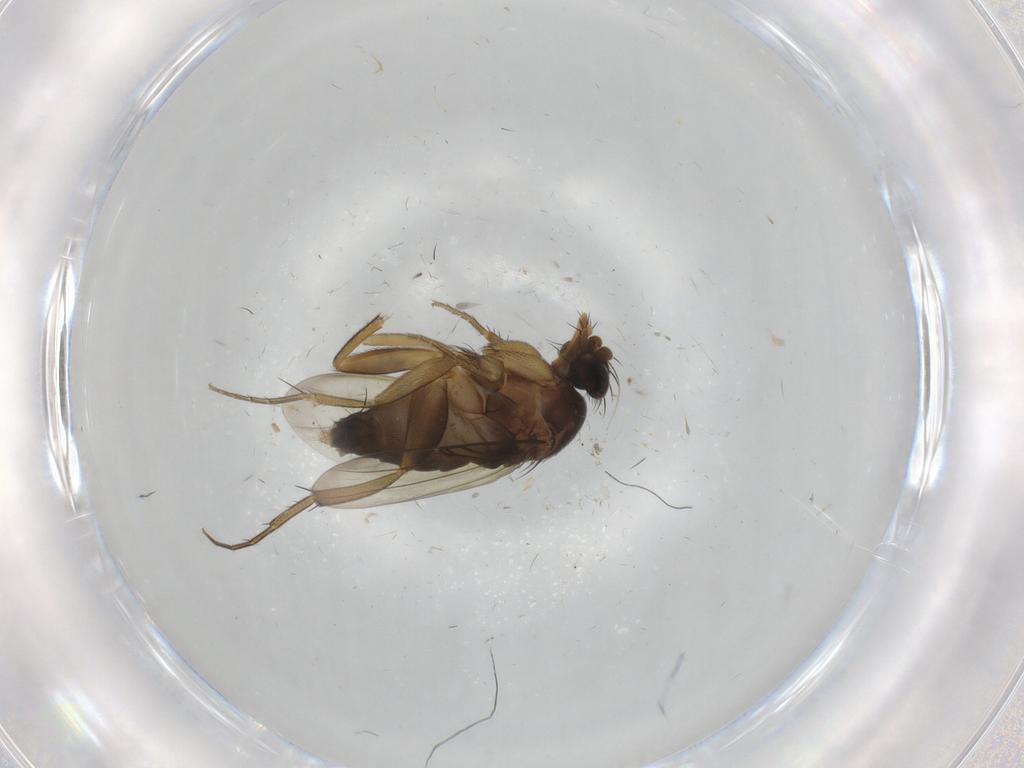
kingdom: Animalia
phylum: Arthropoda
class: Insecta
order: Diptera
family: Phoridae
